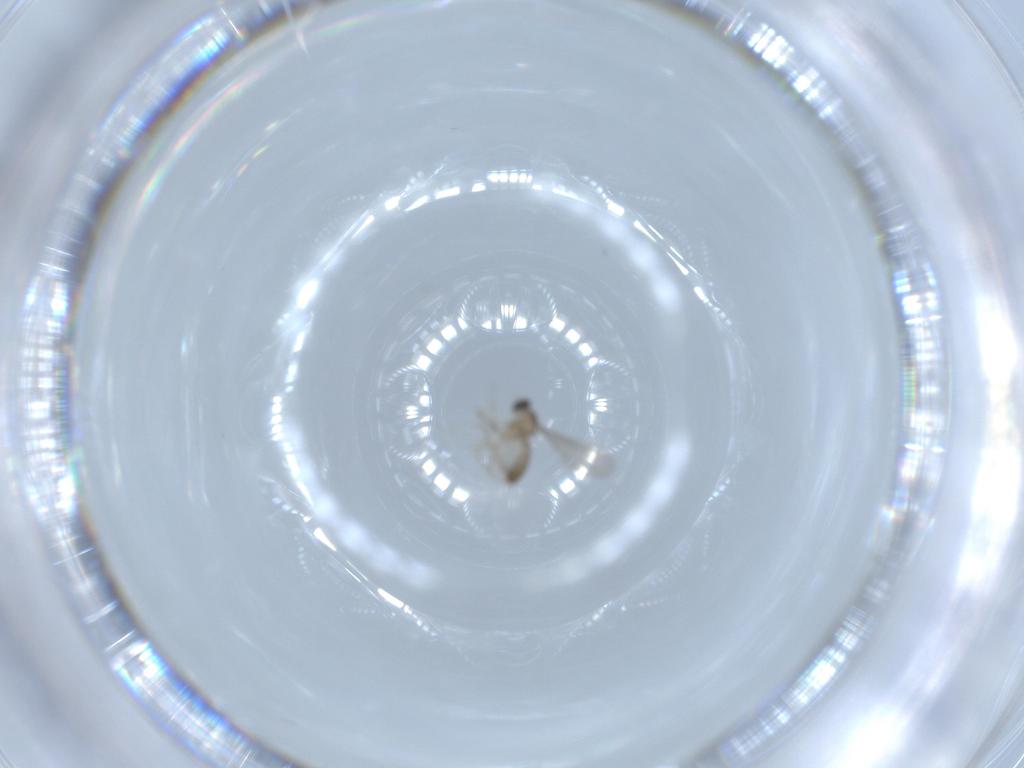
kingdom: Animalia
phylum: Arthropoda
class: Insecta
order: Diptera
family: Cecidomyiidae
